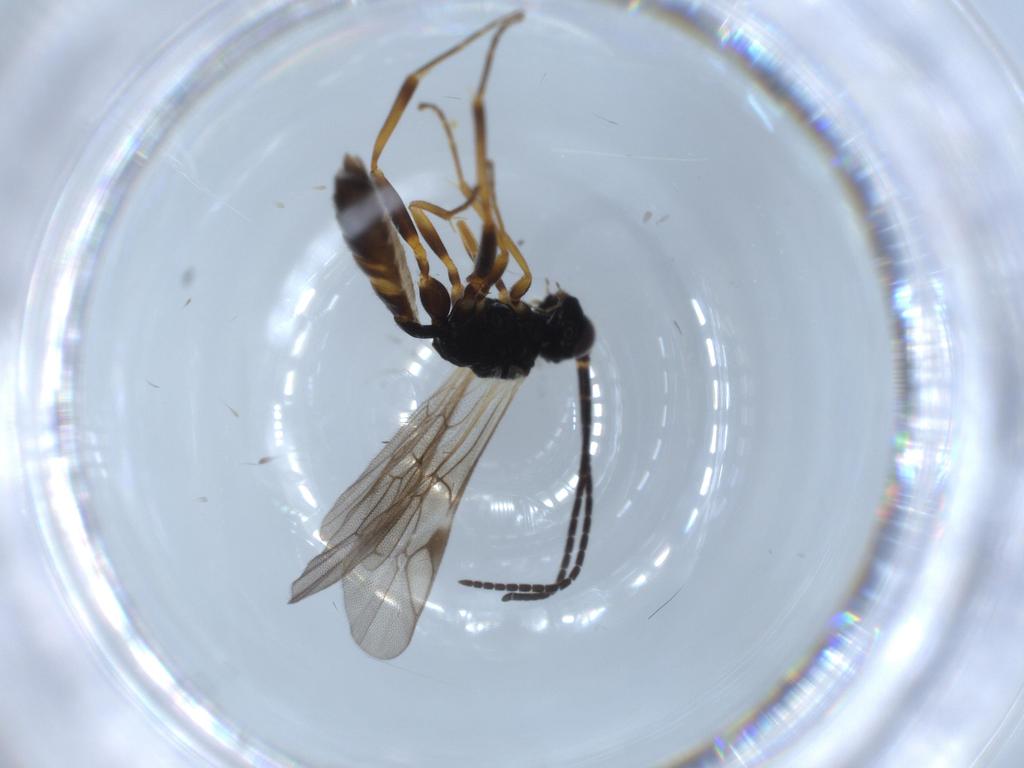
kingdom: Animalia
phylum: Arthropoda
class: Insecta
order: Hymenoptera
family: Ichneumonidae
